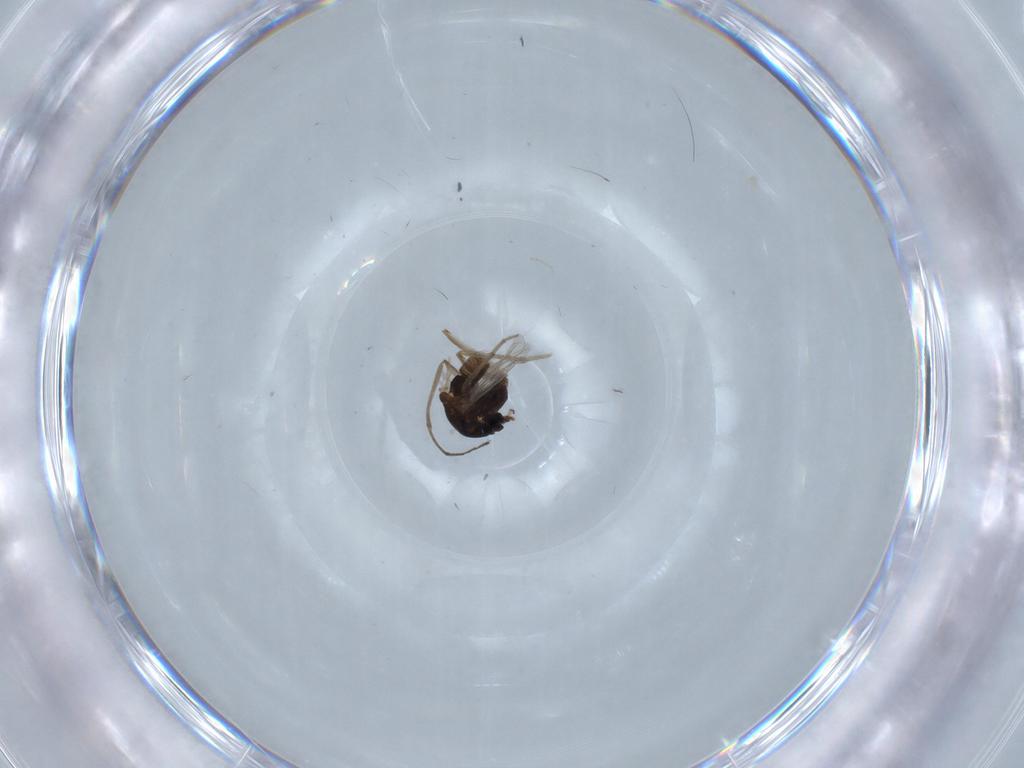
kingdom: Animalia
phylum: Arthropoda
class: Insecta
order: Diptera
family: Chironomidae
